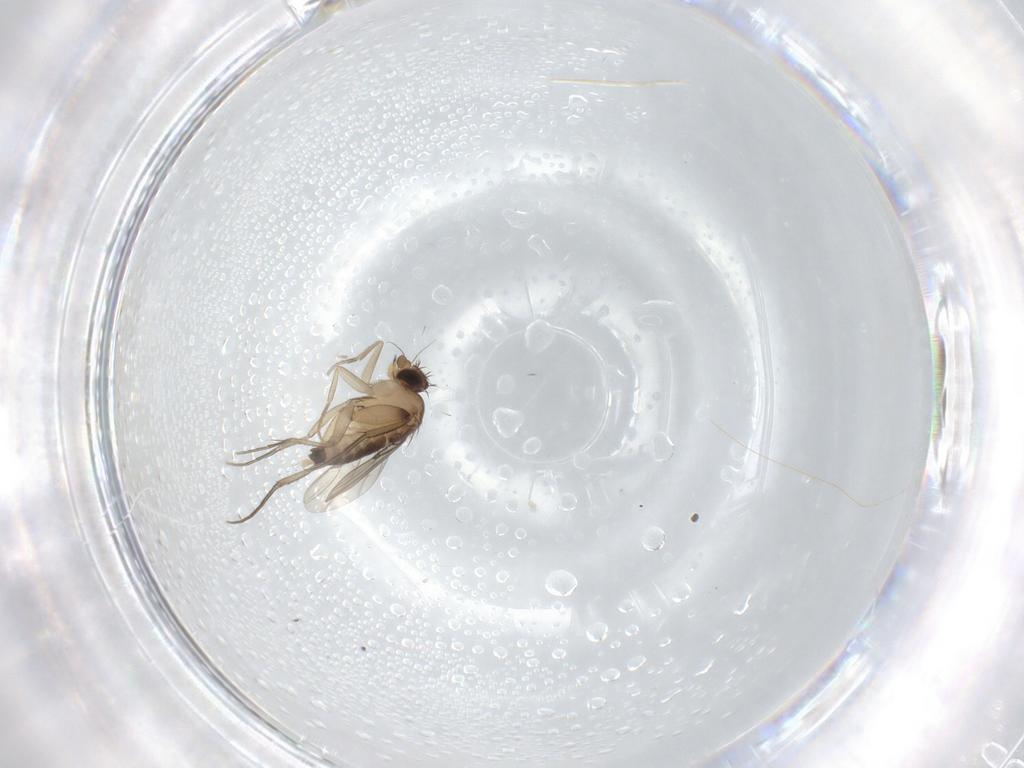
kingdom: Animalia
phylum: Arthropoda
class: Insecta
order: Diptera
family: Phoridae
